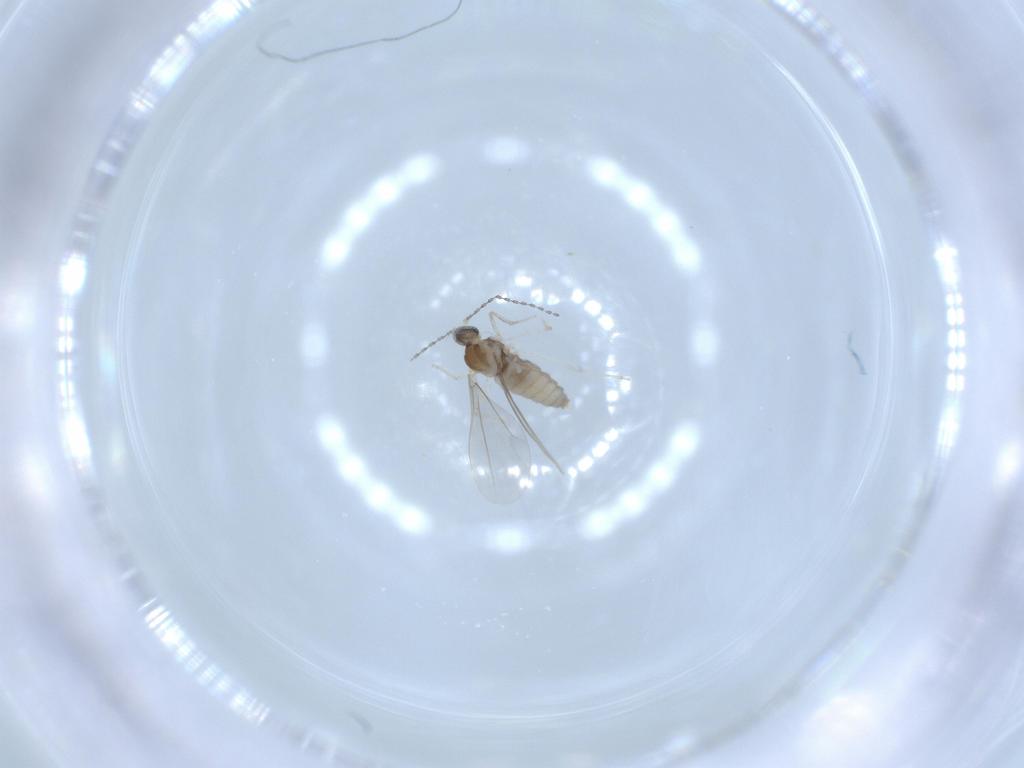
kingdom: Animalia
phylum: Arthropoda
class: Insecta
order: Diptera
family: Cecidomyiidae
